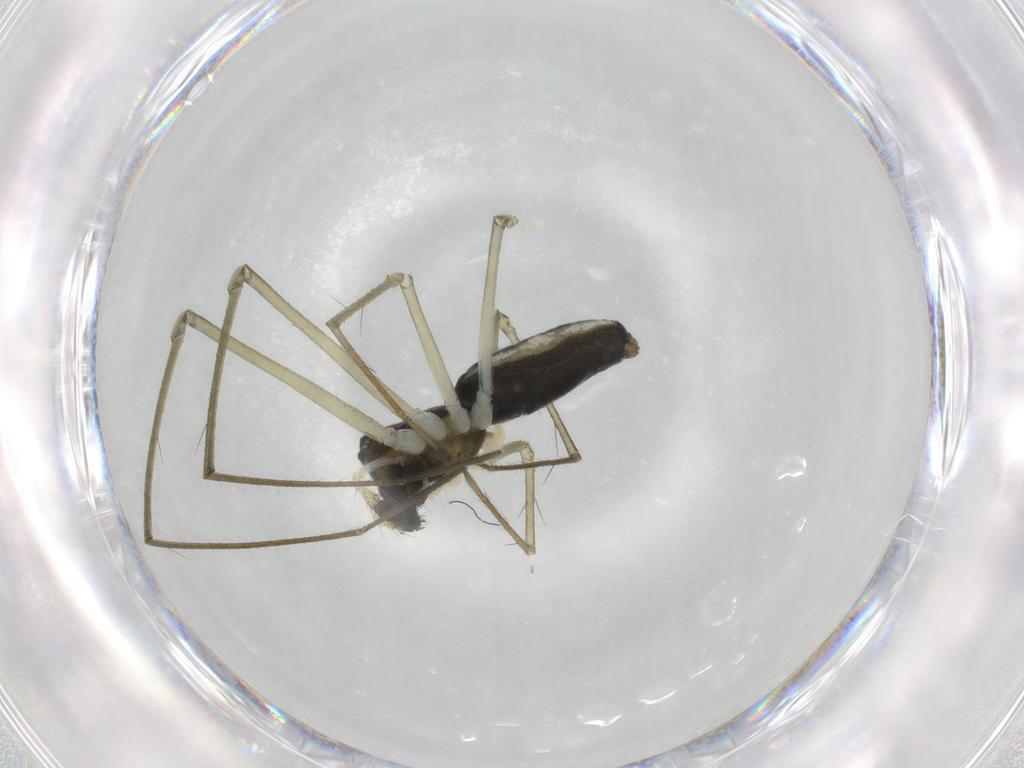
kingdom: Animalia
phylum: Arthropoda
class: Arachnida
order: Araneae
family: Linyphiidae
